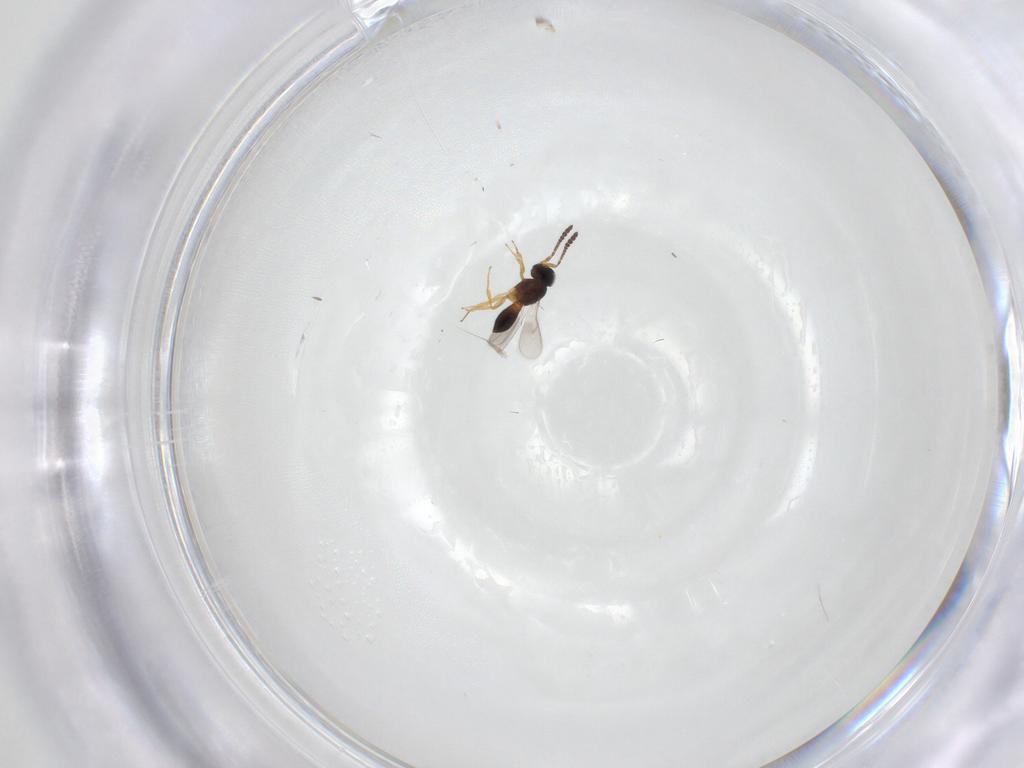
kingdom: Animalia
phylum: Arthropoda
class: Insecta
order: Hymenoptera
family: Scelionidae
